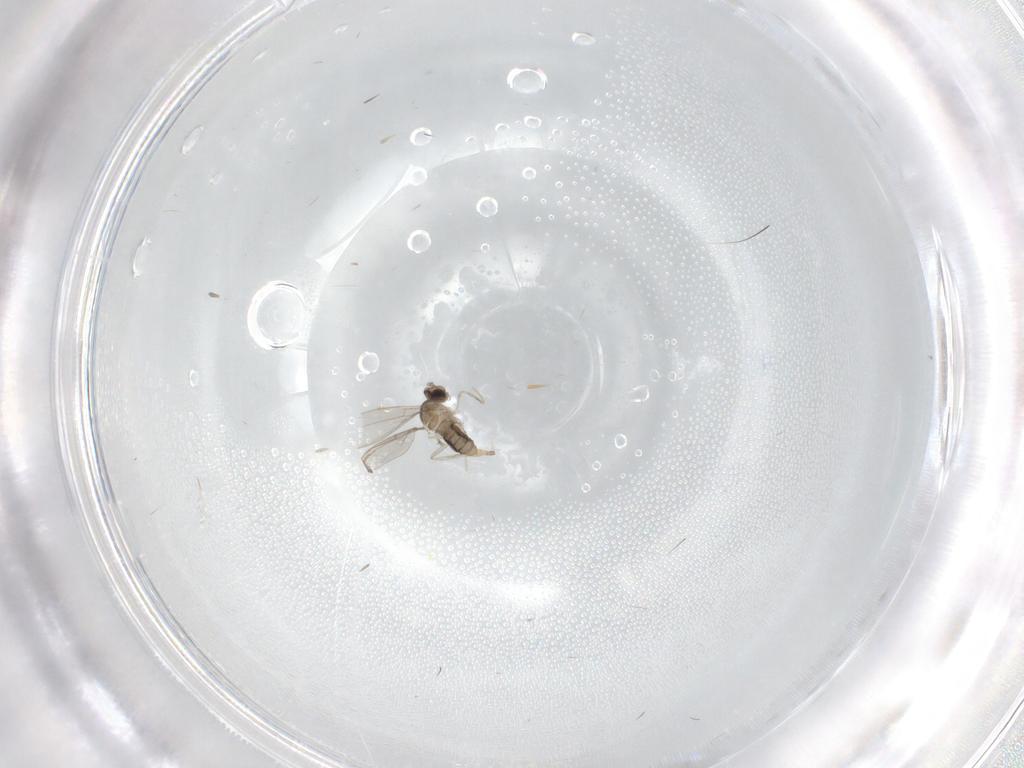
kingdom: Animalia
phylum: Arthropoda
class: Insecta
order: Diptera
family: Cecidomyiidae
